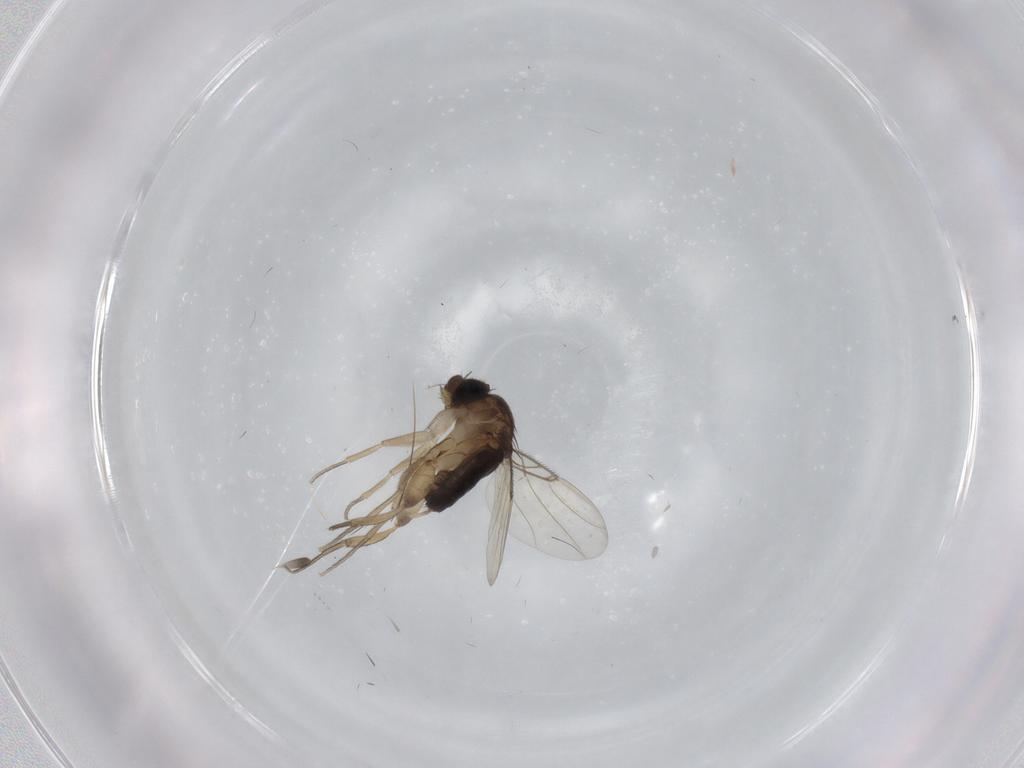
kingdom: Animalia
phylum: Arthropoda
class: Insecta
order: Diptera
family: Phoridae
